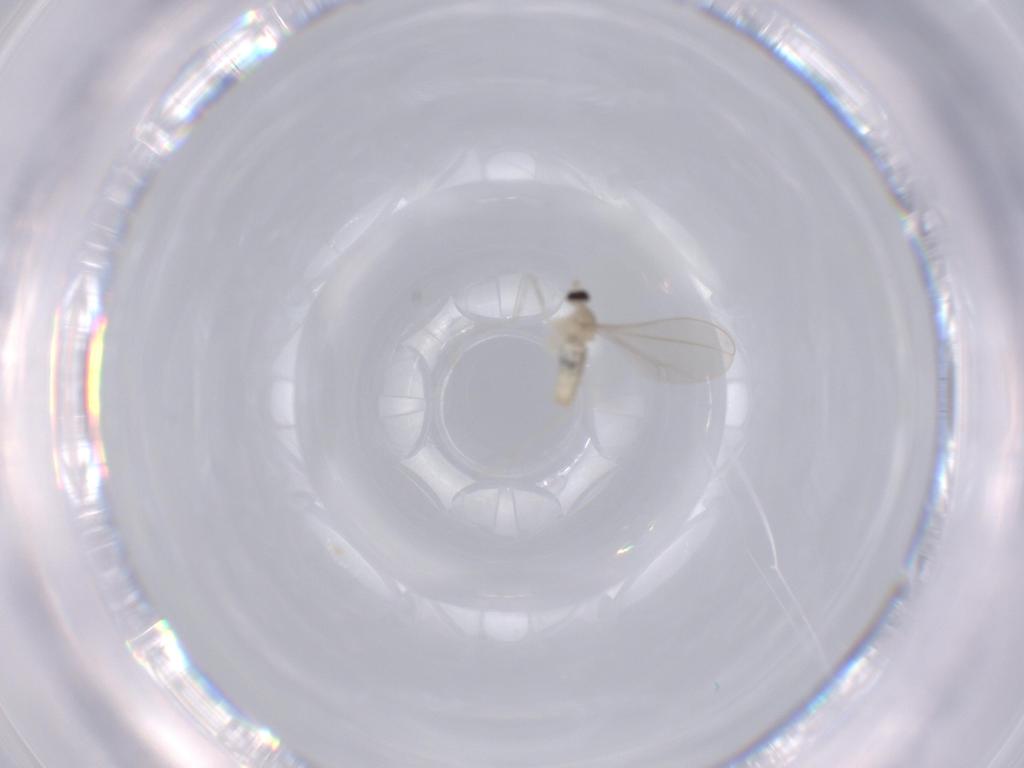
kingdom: Animalia
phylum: Arthropoda
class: Insecta
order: Diptera
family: Cecidomyiidae
